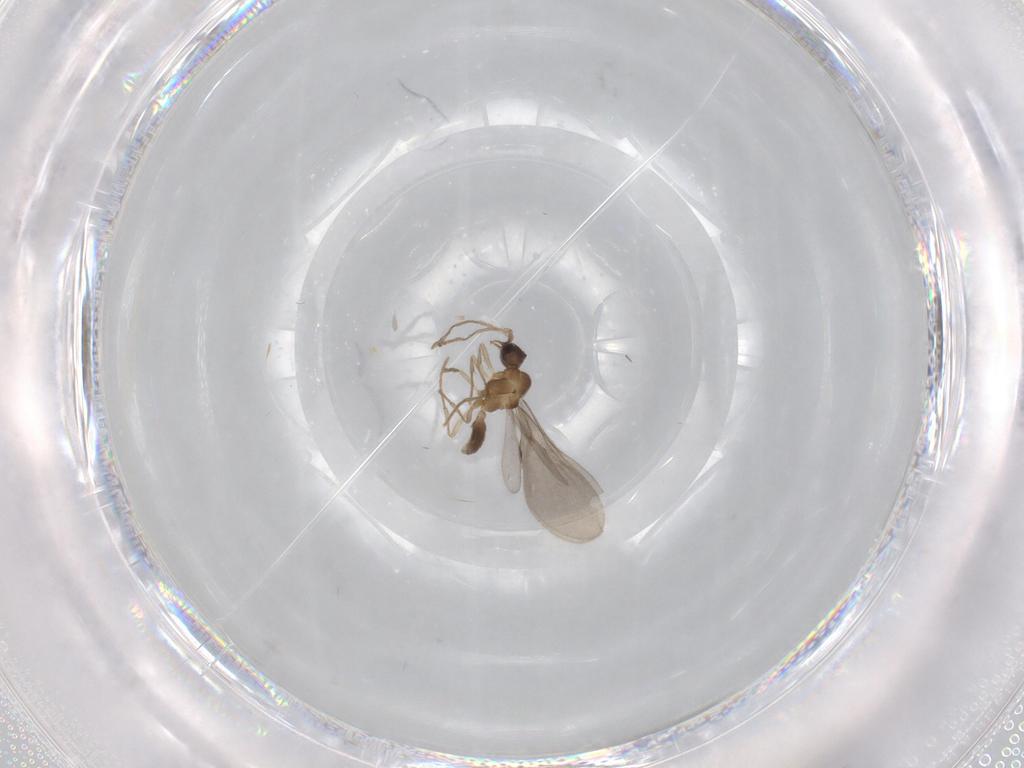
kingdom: Animalia
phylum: Arthropoda
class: Insecta
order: Hymenoptera
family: Formicidae
